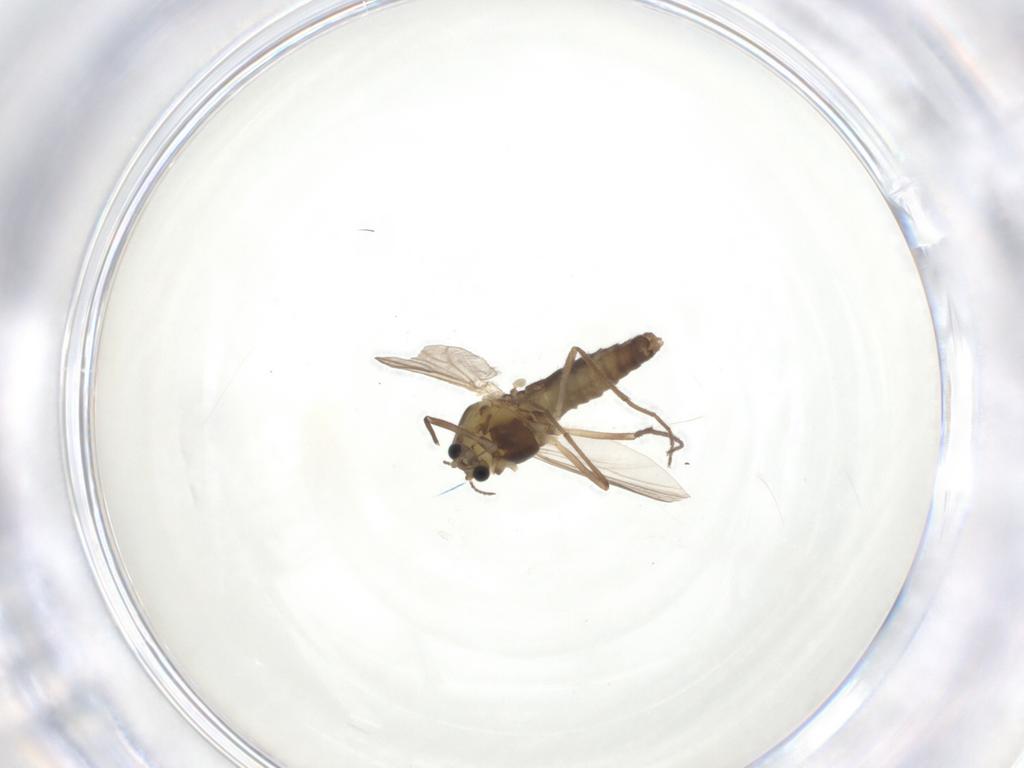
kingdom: Animalia
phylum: Arthropoda
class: Insecta
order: Diptera
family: Chironomidae
